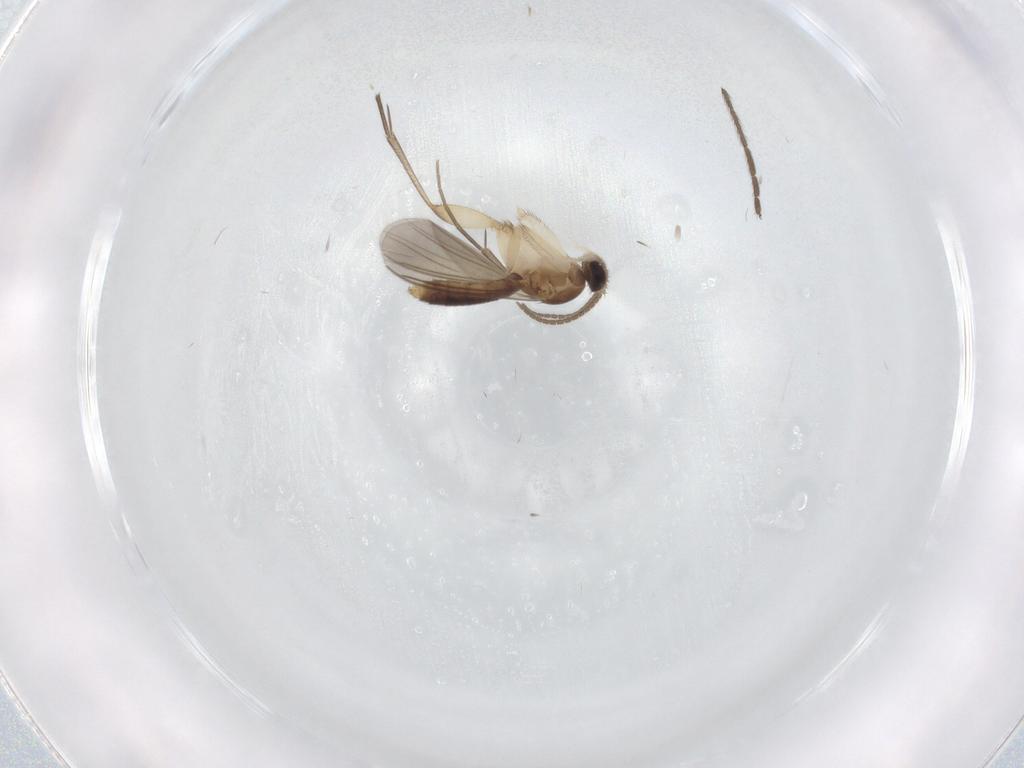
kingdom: Animalia
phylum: Arthropoda
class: Insecta
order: Diptera
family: Mycetophilidae
